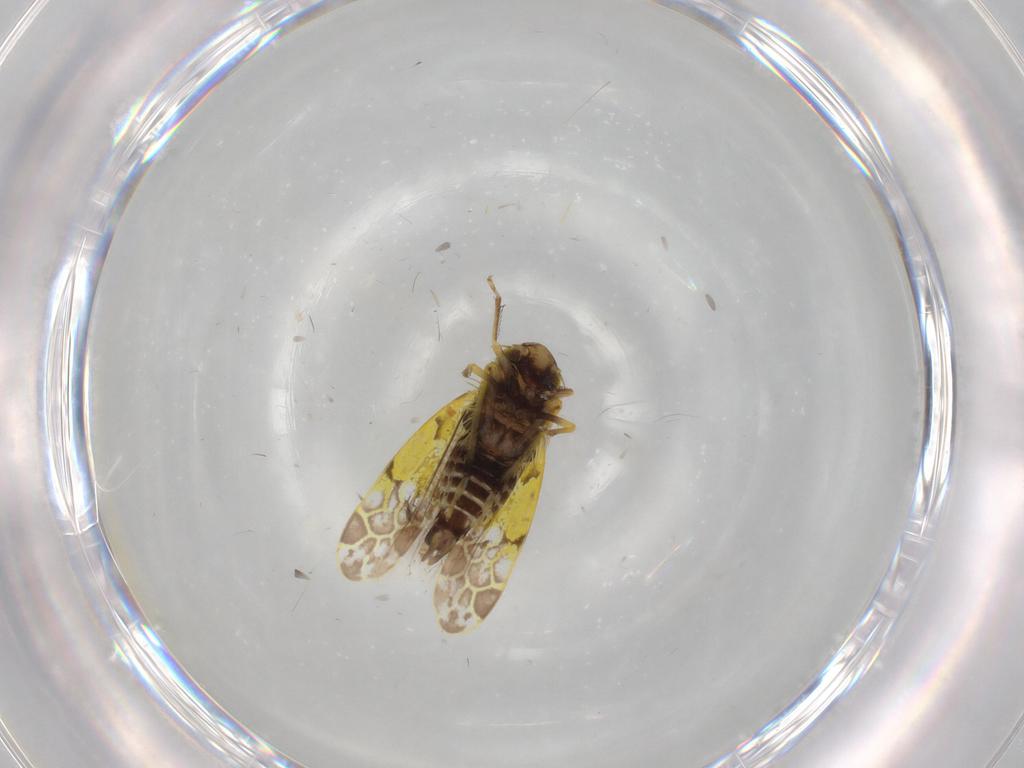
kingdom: Animalia
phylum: Arthropoda
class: Insecta
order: Hemiptera
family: Cicadellidae
